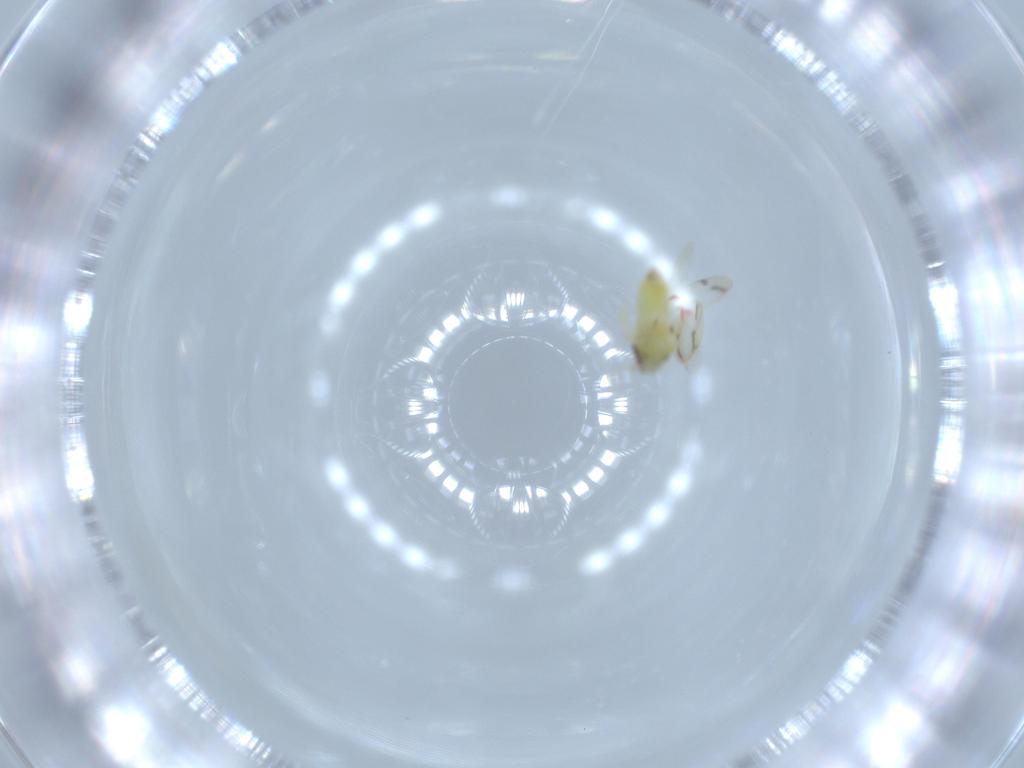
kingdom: Animalia
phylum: Arthropoda
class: Insecta
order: Hemiptera
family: Aleyrodidae
